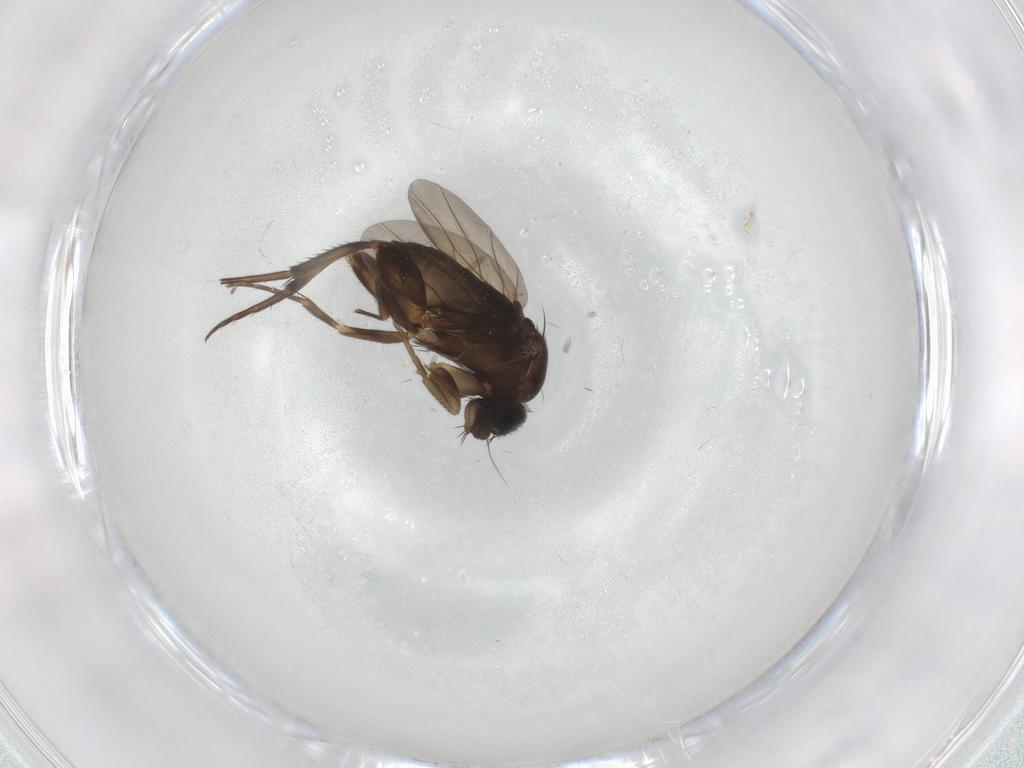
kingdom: Animalia
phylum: Arthropoda
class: Insecta
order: Diptera
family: Phoridae
